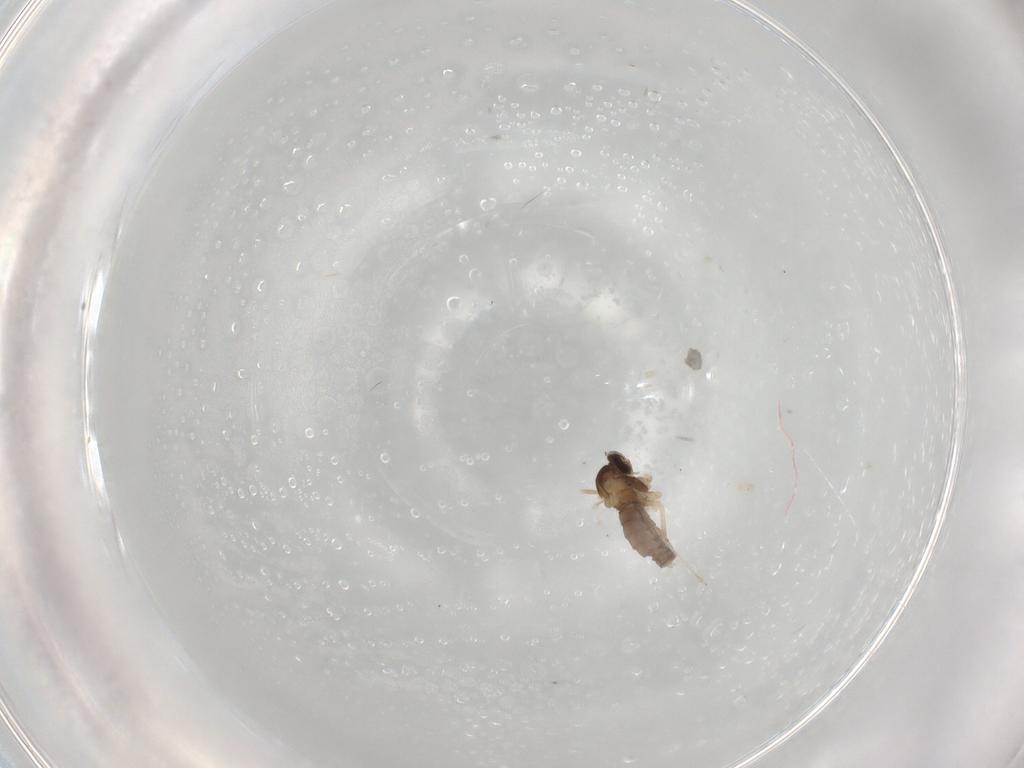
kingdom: Animalia
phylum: Arthropoda
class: Insecta
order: Diptera
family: Cecidomyiidae
